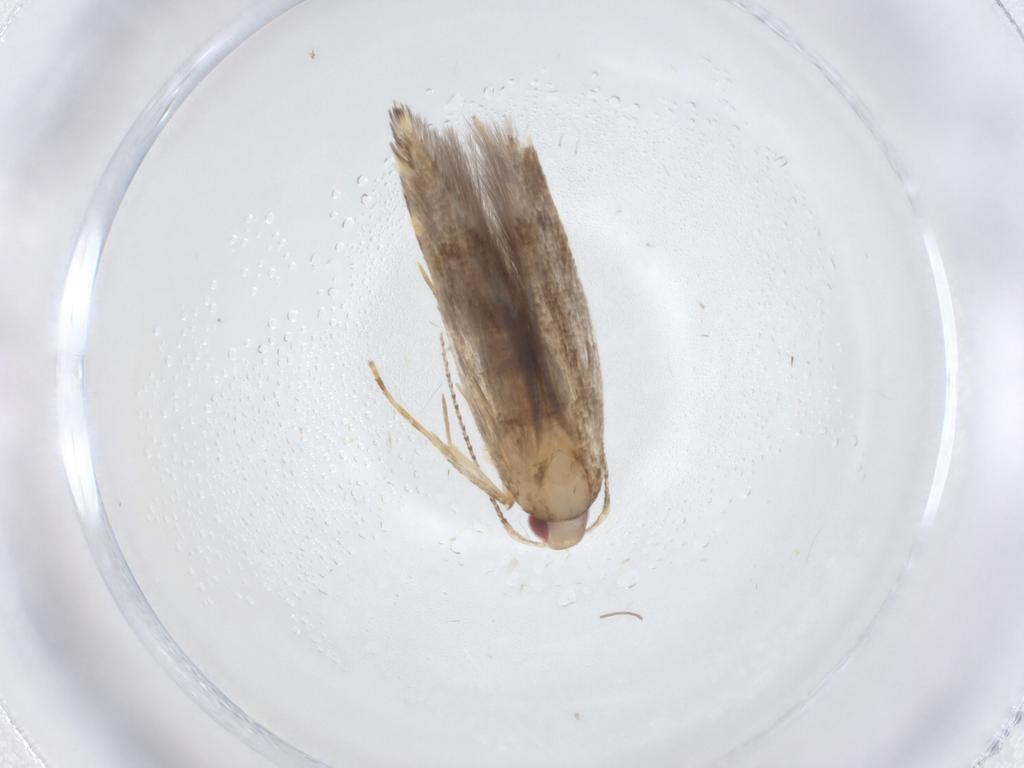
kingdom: Animalia
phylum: Arthropoda
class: Insecta
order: Lepidoptera
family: Cosmopterigidae
